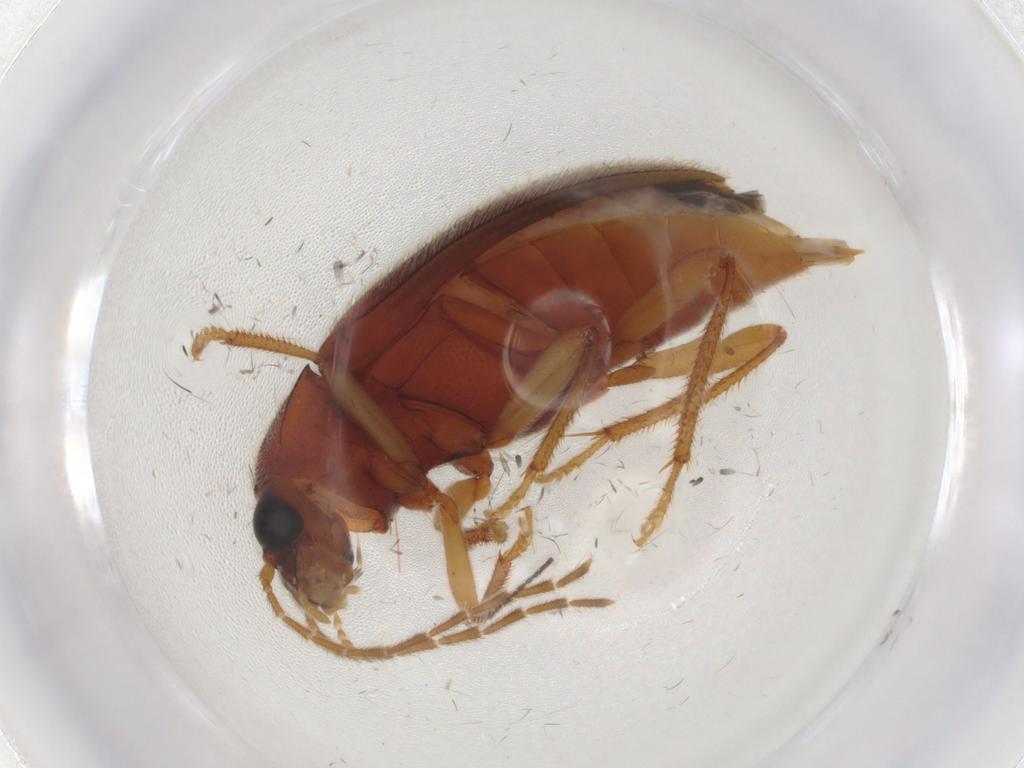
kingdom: Animalia
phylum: Arthropoda
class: Insecta
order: Coleoptera
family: Ptilodactylidae
